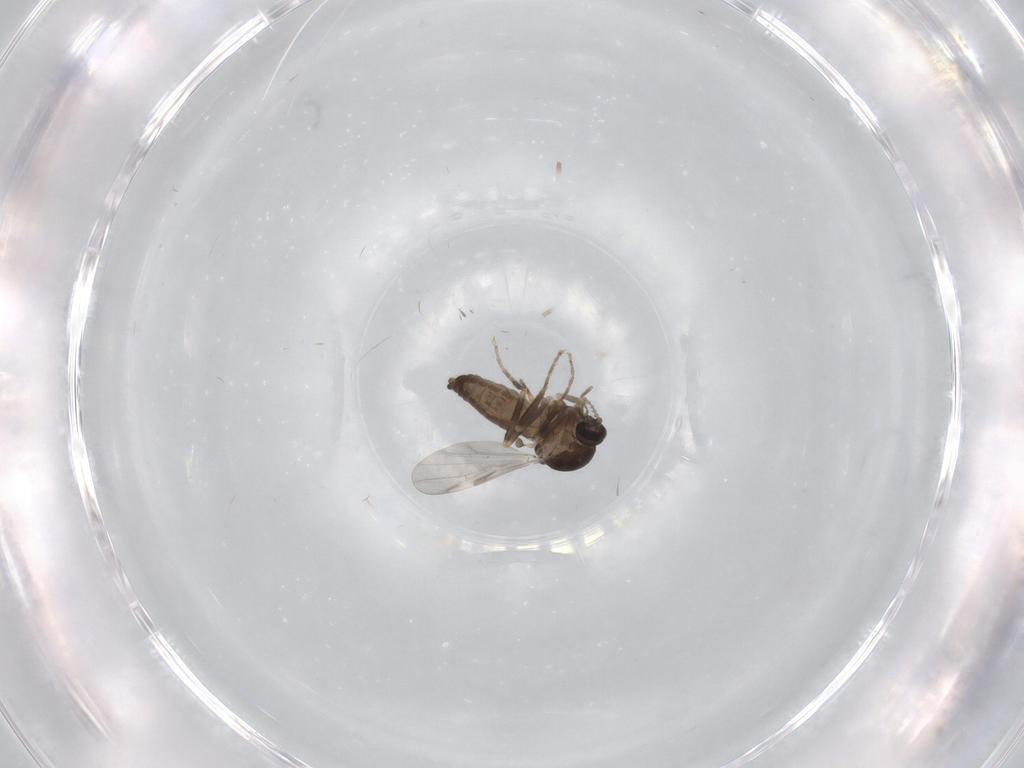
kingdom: Animalia
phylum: Arthropoda
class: Insecta
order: Diptera
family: Ceratopogonidae
